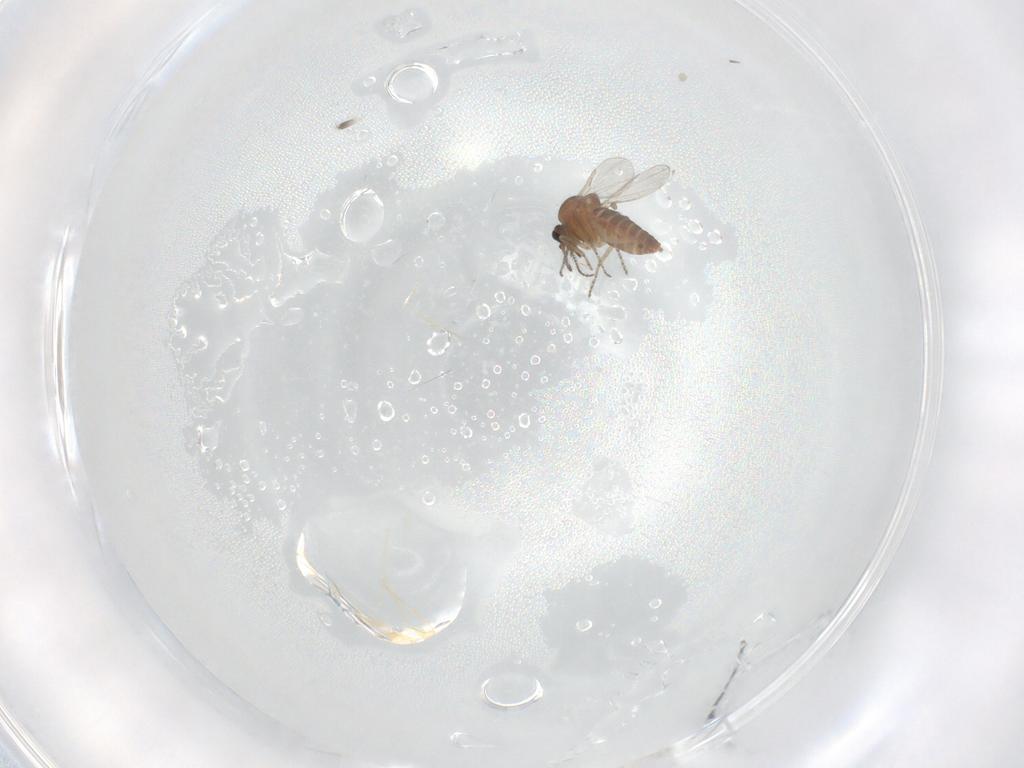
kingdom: Animalia
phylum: Arthropoda
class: Insecta
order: Diptera
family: Ceratopogonidae
